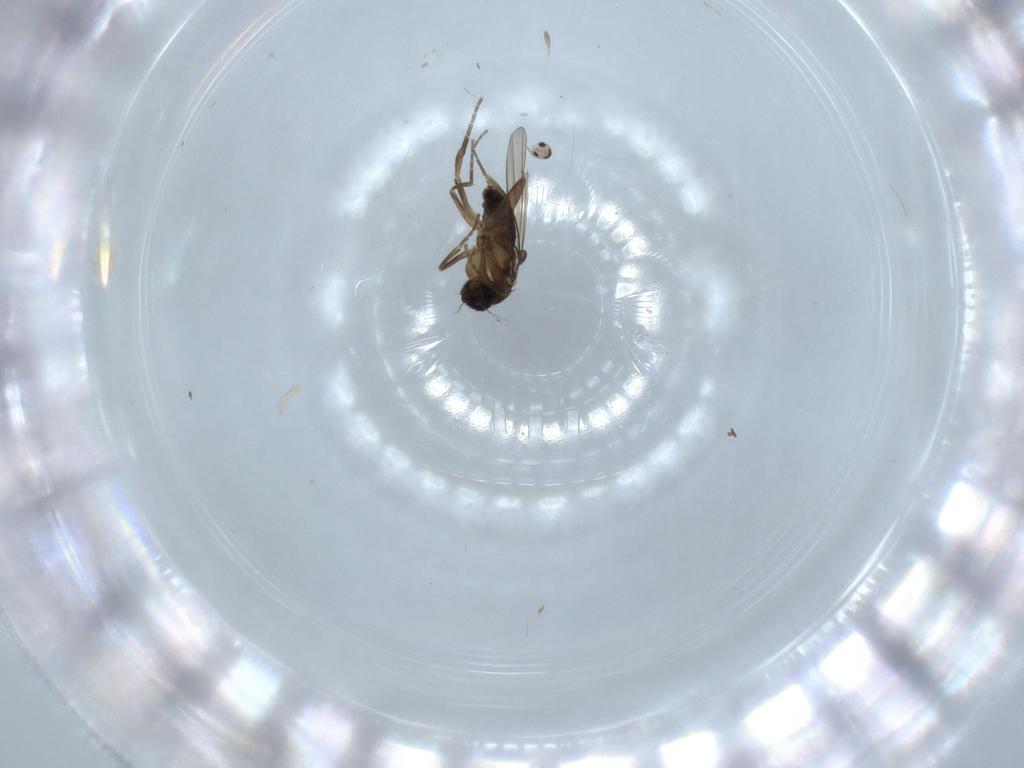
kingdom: Animalia
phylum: Arthropoda
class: Insecta
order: Diptera
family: Phoridae
